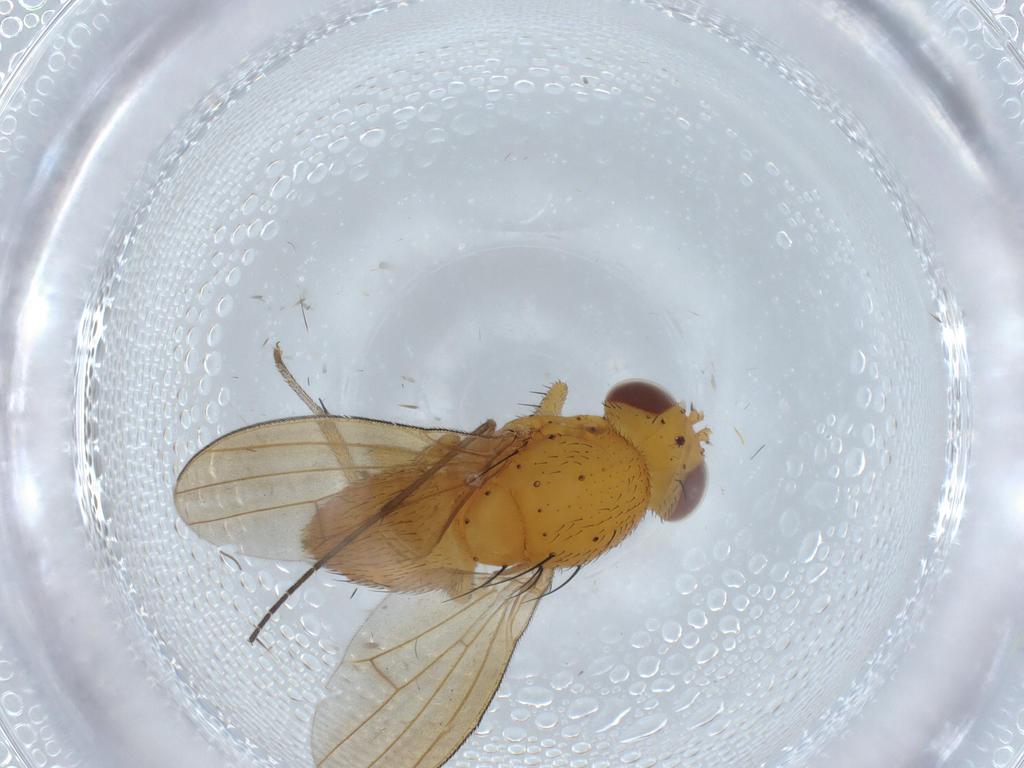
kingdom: Animalia
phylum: Arthropoda
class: Insecta
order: Diptera
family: Lauxaniidae
